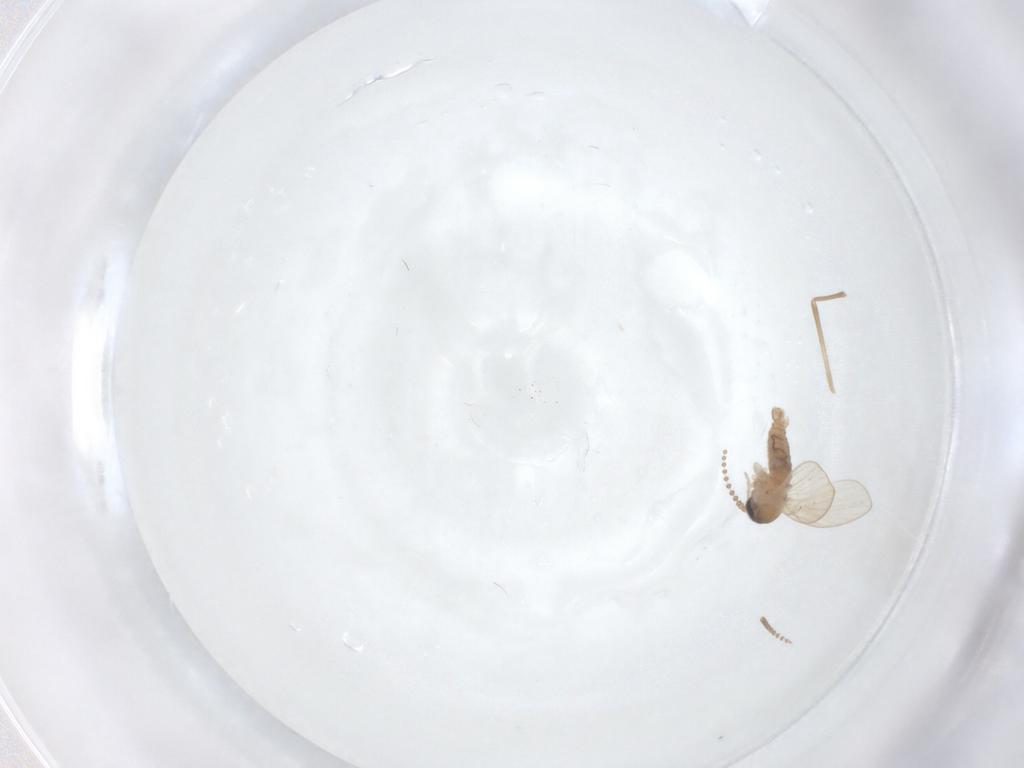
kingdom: Animalia
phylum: Arthropoda
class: Insecta
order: Diptera
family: Psychodidae
